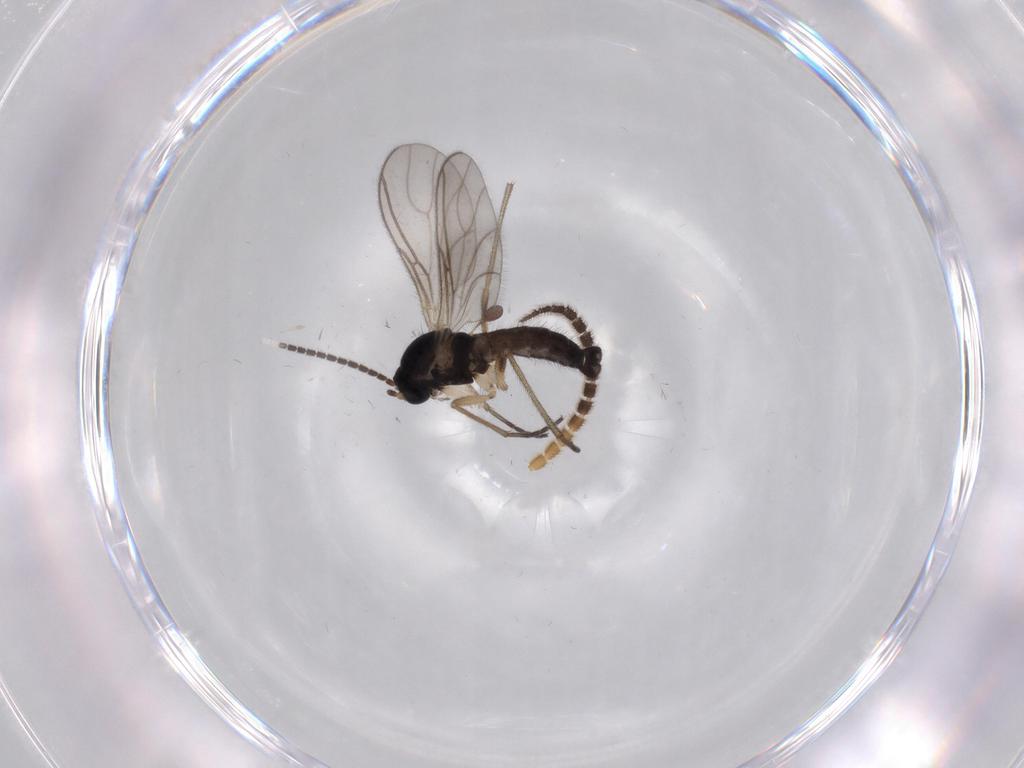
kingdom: Animalia
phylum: Arthropoda
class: Insecta
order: Diptera
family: Sciaridae
